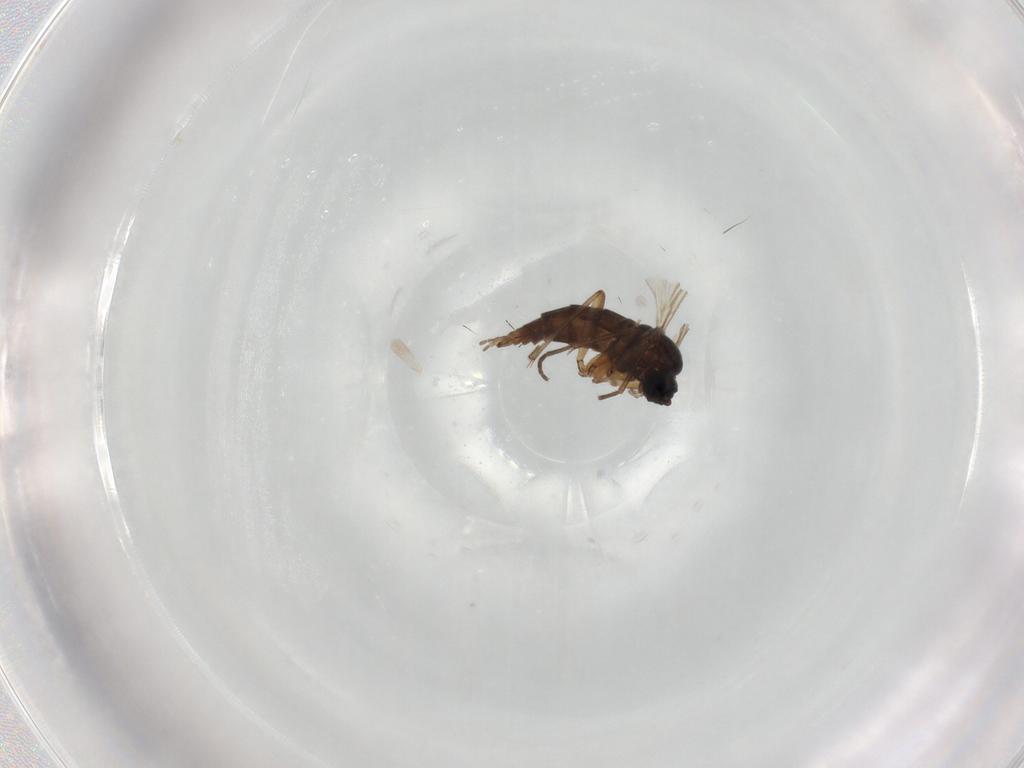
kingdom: Animalia
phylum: Arthropoda
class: Insecta
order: Diptera
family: Sciaridae
